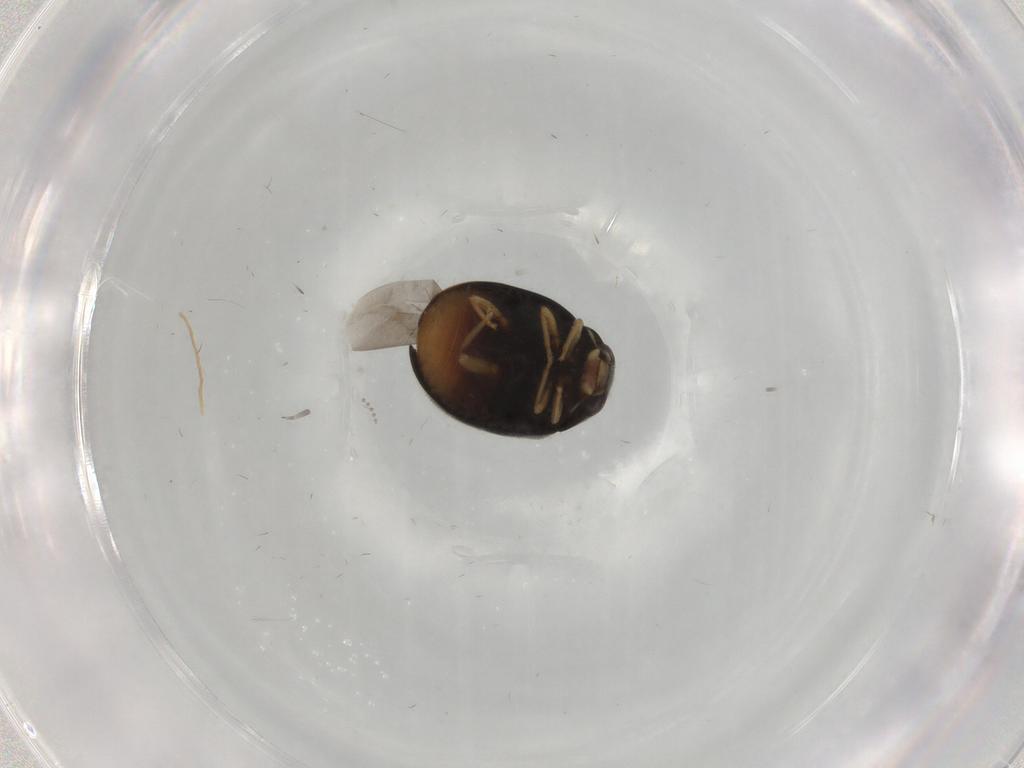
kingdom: Animalia
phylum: Arthropoda
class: Insecta
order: Coleoptera
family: Coccinellidae
